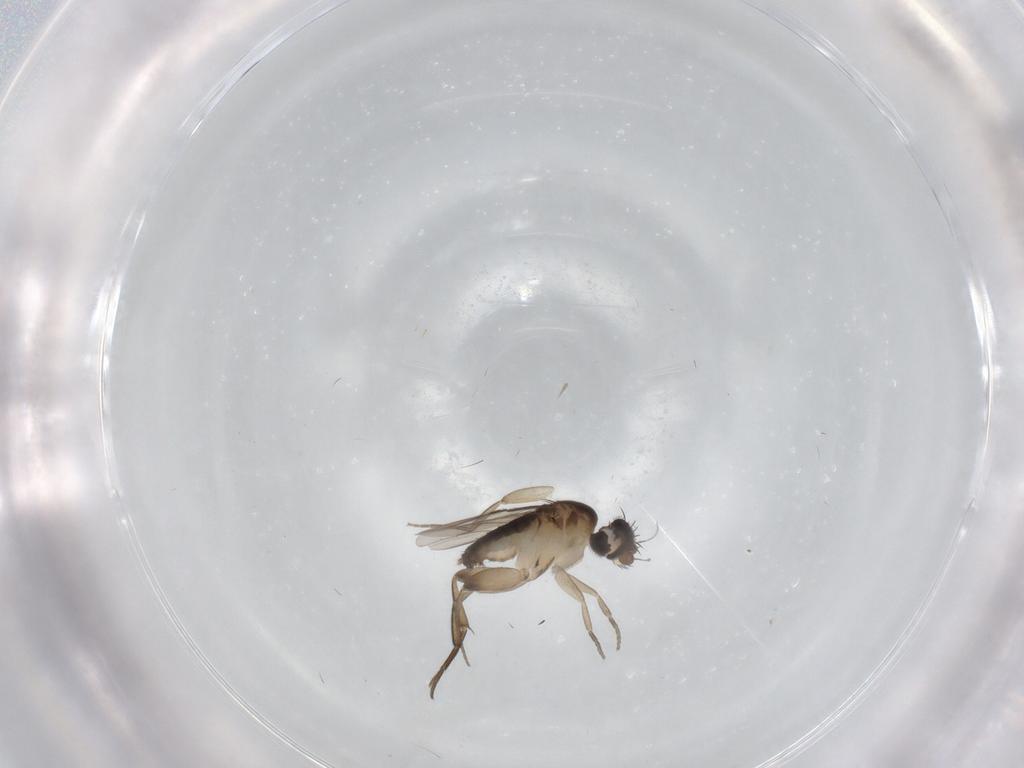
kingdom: Animalia
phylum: Arthropoda
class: Insecta
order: Diptera
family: Phoridae
